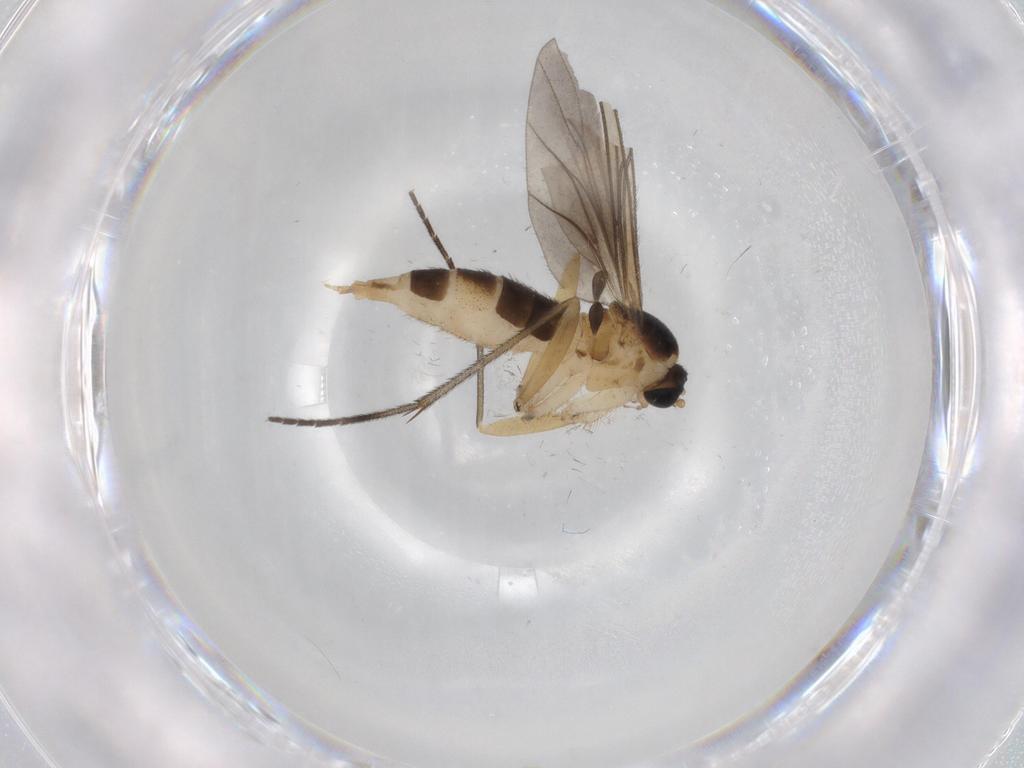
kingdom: Animalia
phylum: Arthropoda
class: Insecta
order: Diptera
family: Sciaridae
